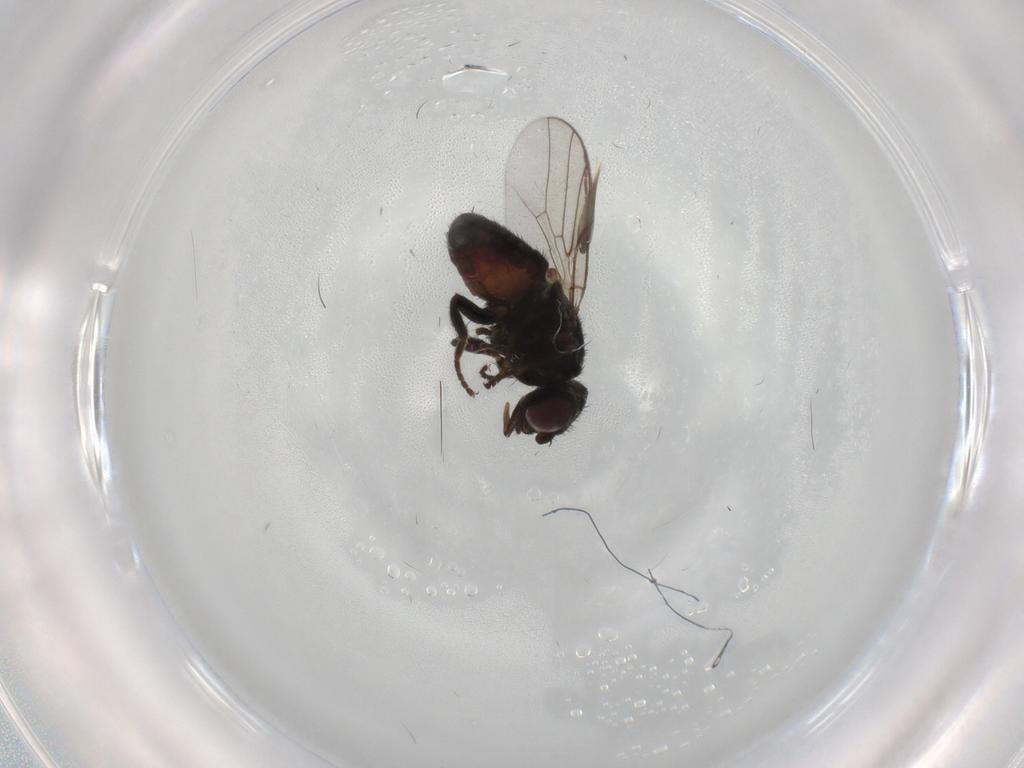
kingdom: Animalia
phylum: Arthropoda
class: Insecta
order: Diptera
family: Chloropidae
